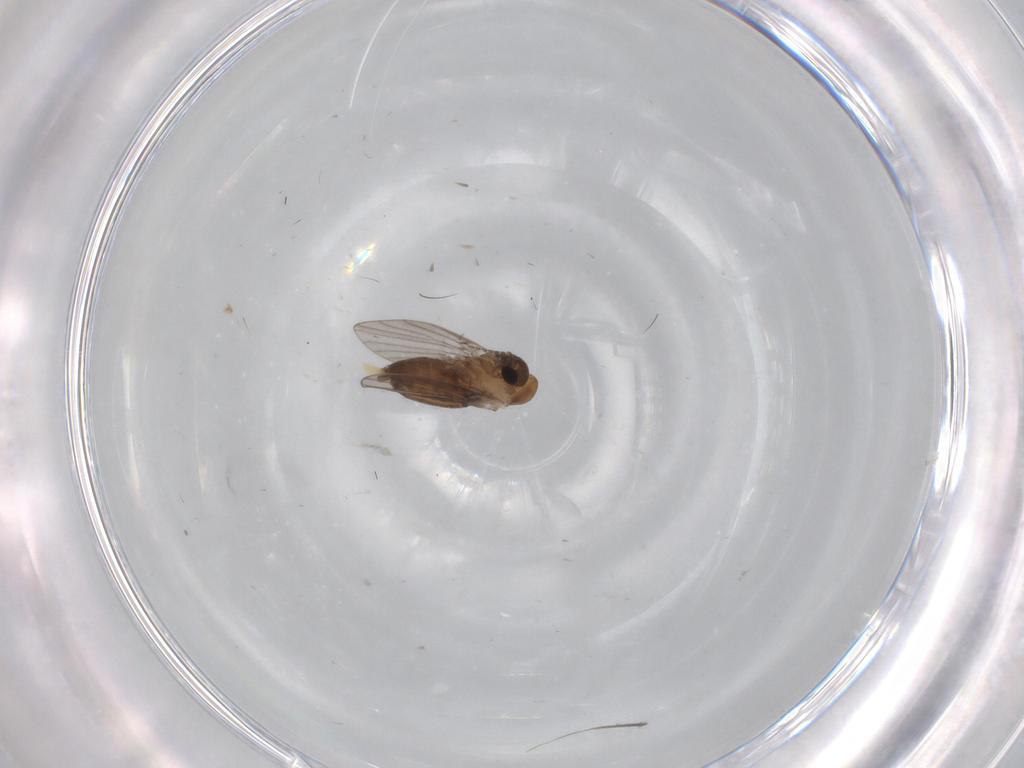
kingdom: Animalia
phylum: Arthropoda
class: Insecta
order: Diptera
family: Psychodidae
